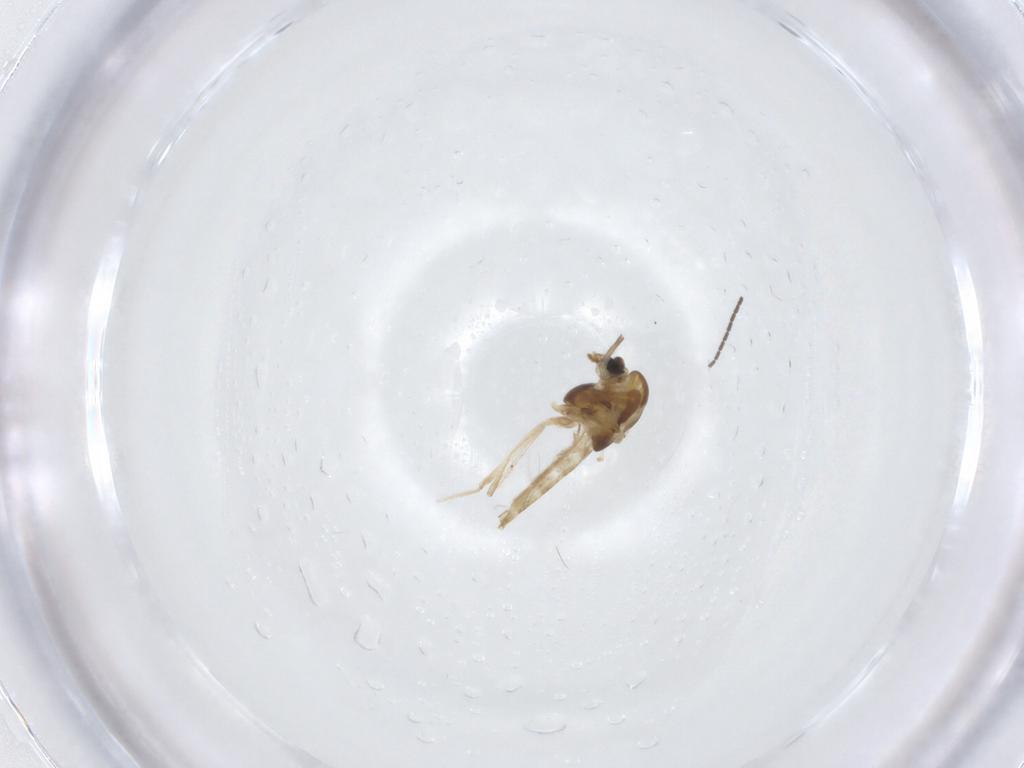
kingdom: Animalia
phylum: Arthropoda
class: Insecta
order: Diptera
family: Chironomidae
